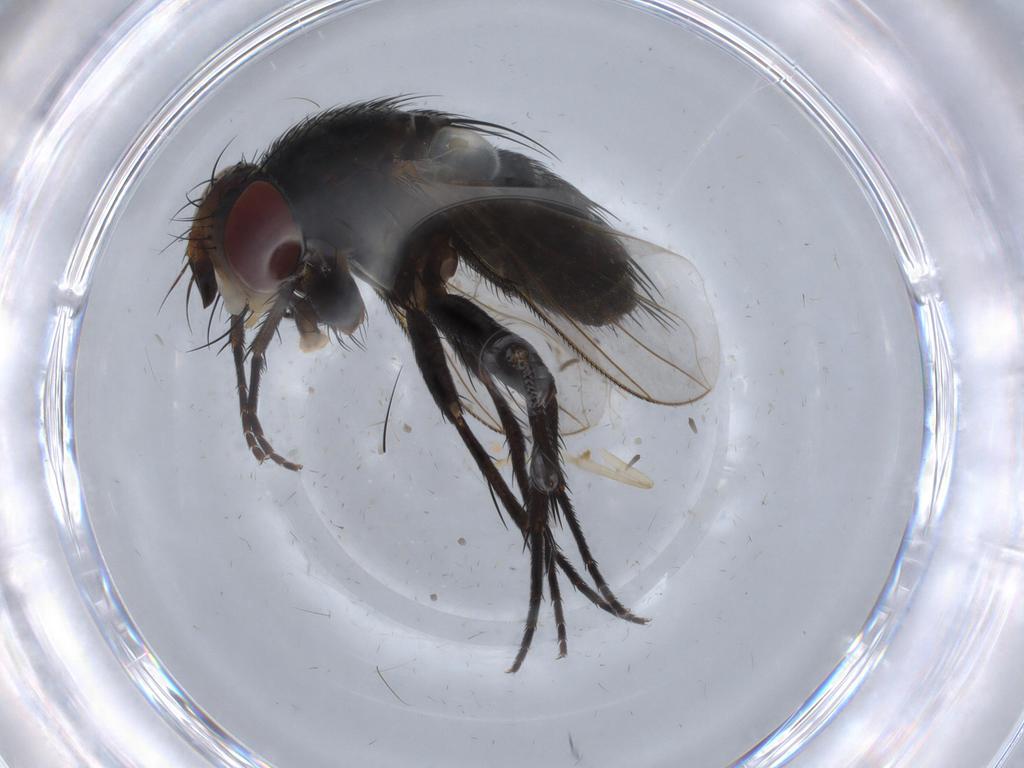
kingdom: Animalia
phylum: Arthropoda
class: Insecta
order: Diptera
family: Tachinidae
